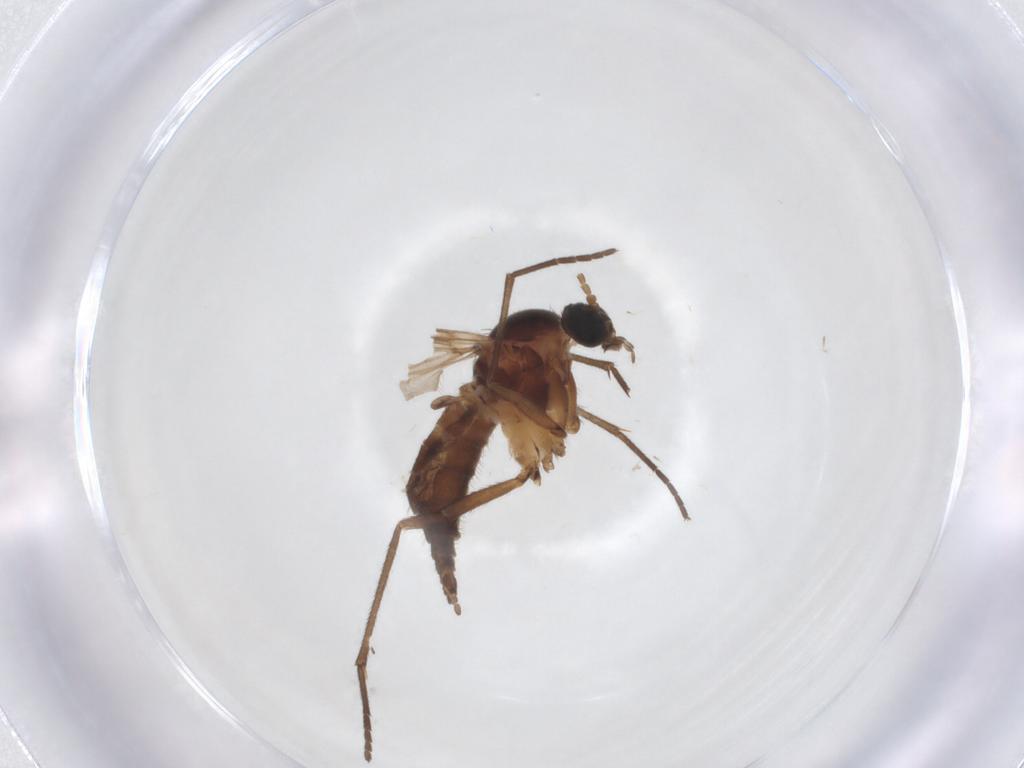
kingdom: Animalia
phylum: Arthropoda
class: Insecta
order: Diptera
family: Sciaridae
